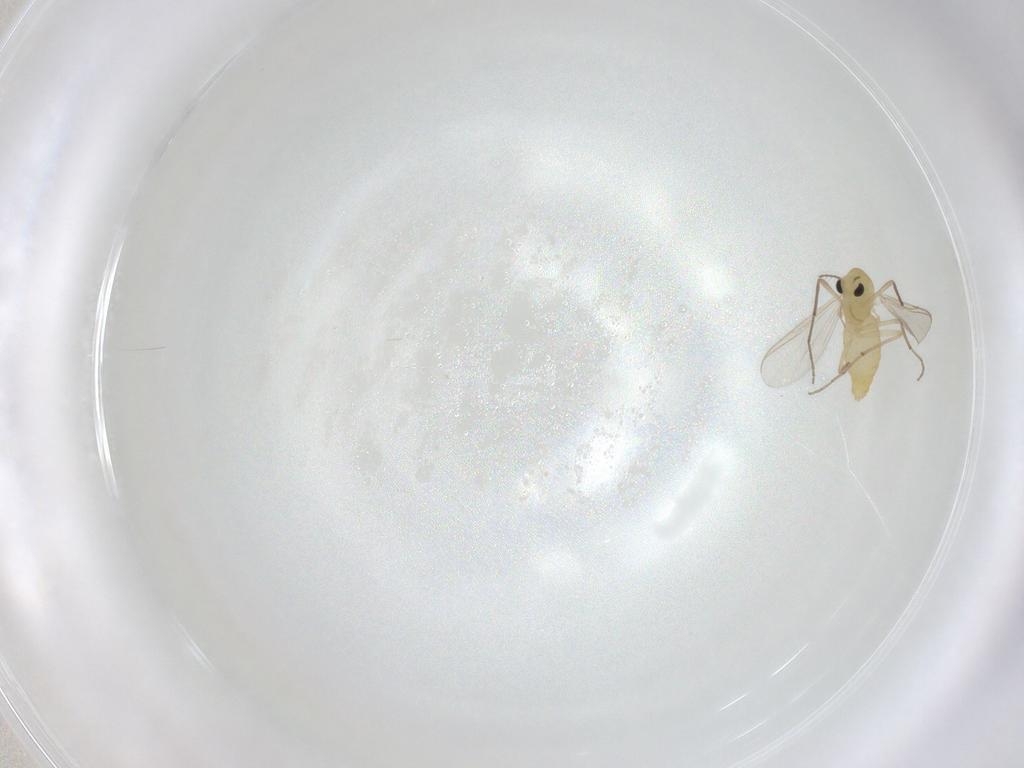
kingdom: Animalia
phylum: Arthropoda
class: Insecta
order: Diptera
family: Chironomidae
